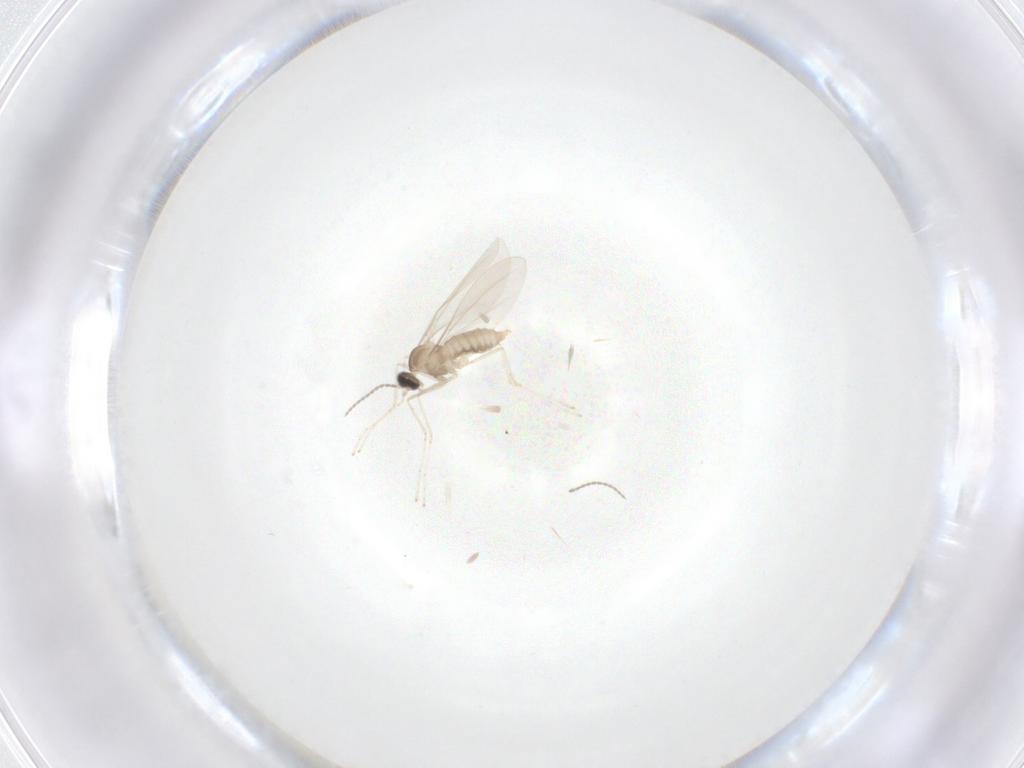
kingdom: Animalia
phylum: Arthropoda
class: Insecta
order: Diptera
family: Cecidomyiidae
